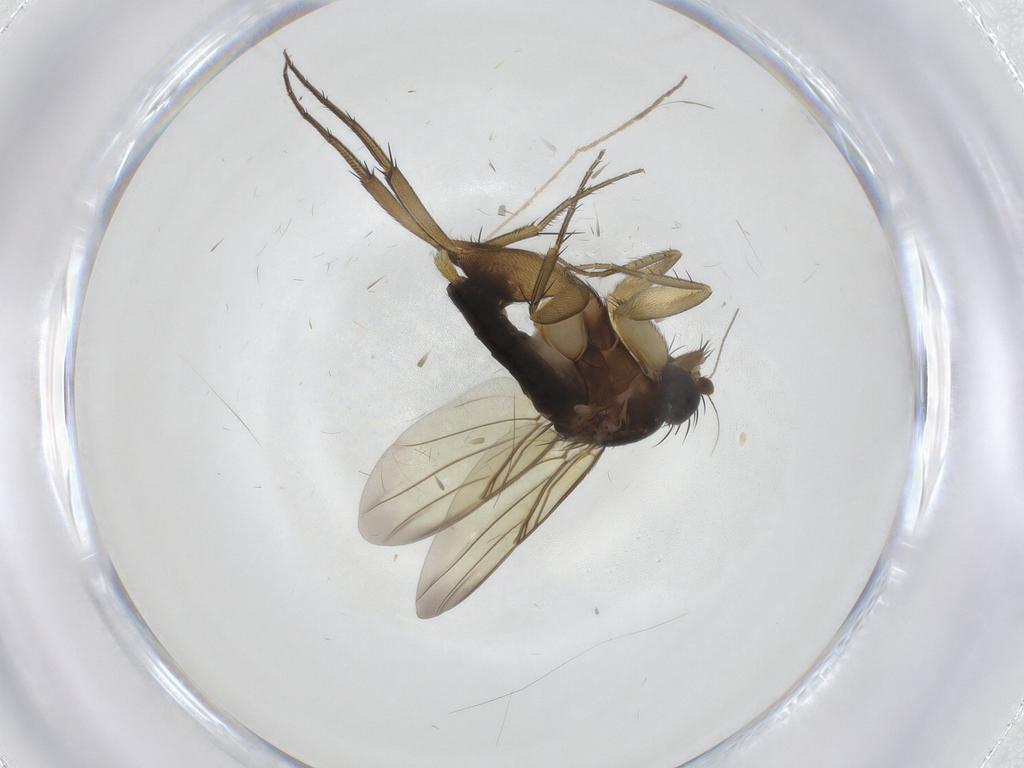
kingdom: Animalia
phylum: Arthropoda
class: Insecta
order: Diptera
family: Phoridae
